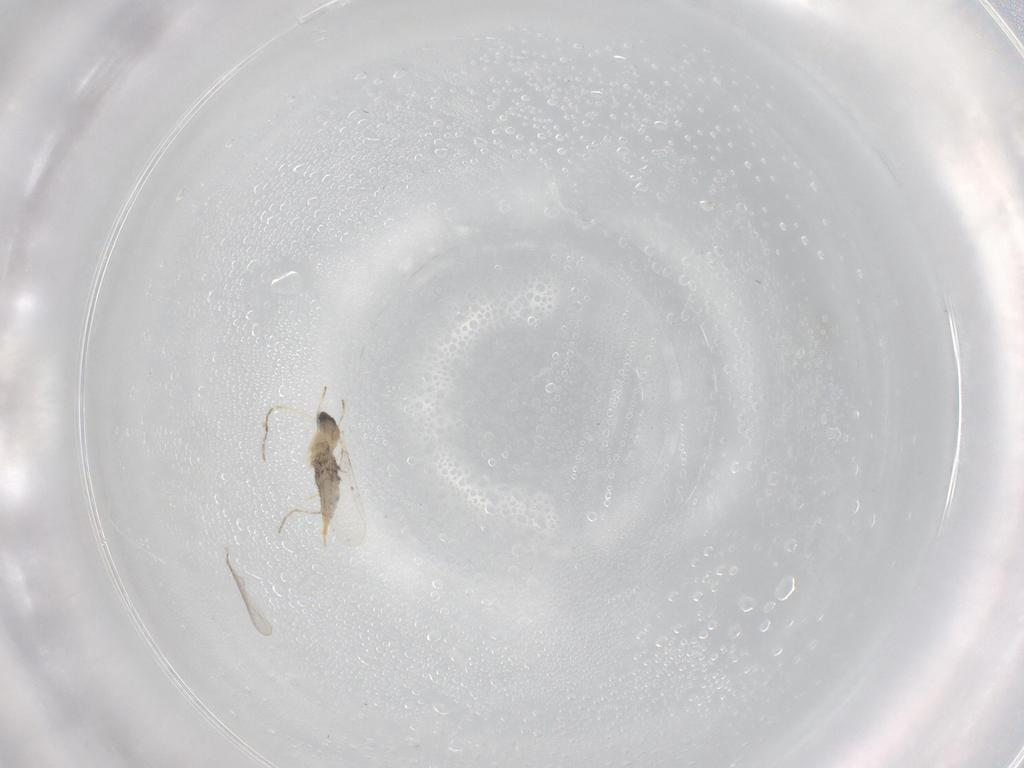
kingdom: Animalia
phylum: Arthropoda
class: Insecta
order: Diptera
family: Cecidomyiidae
